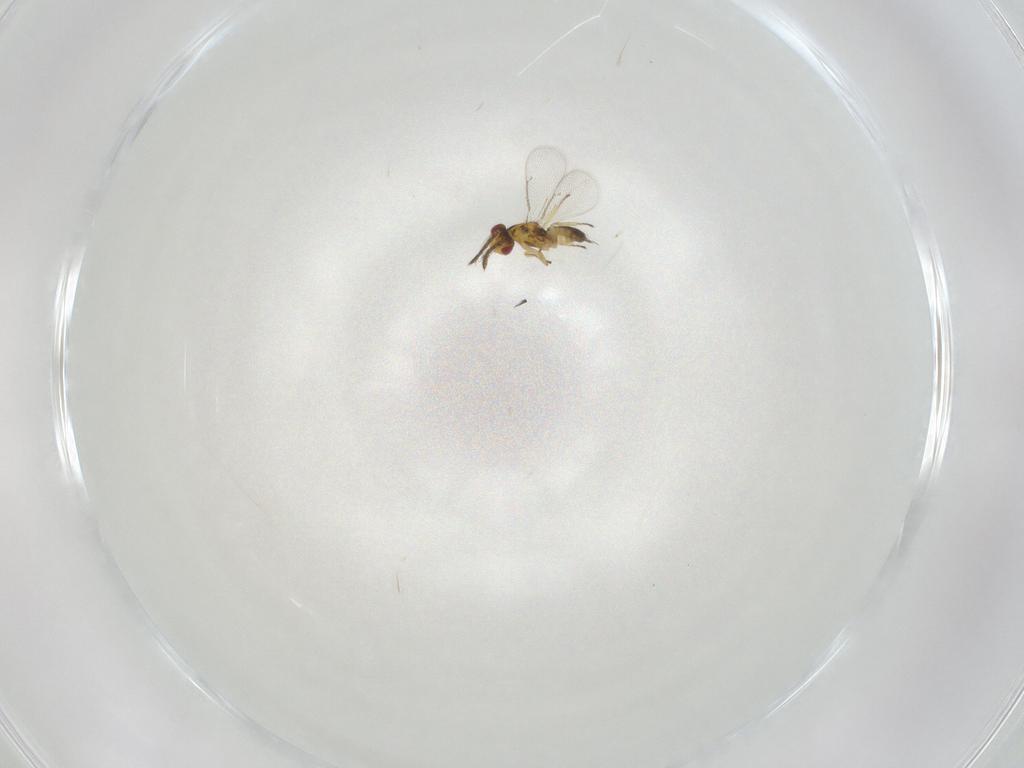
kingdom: Animalia
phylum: Arthropoda
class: Insecta
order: Hymenoptera
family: Eulophidae
